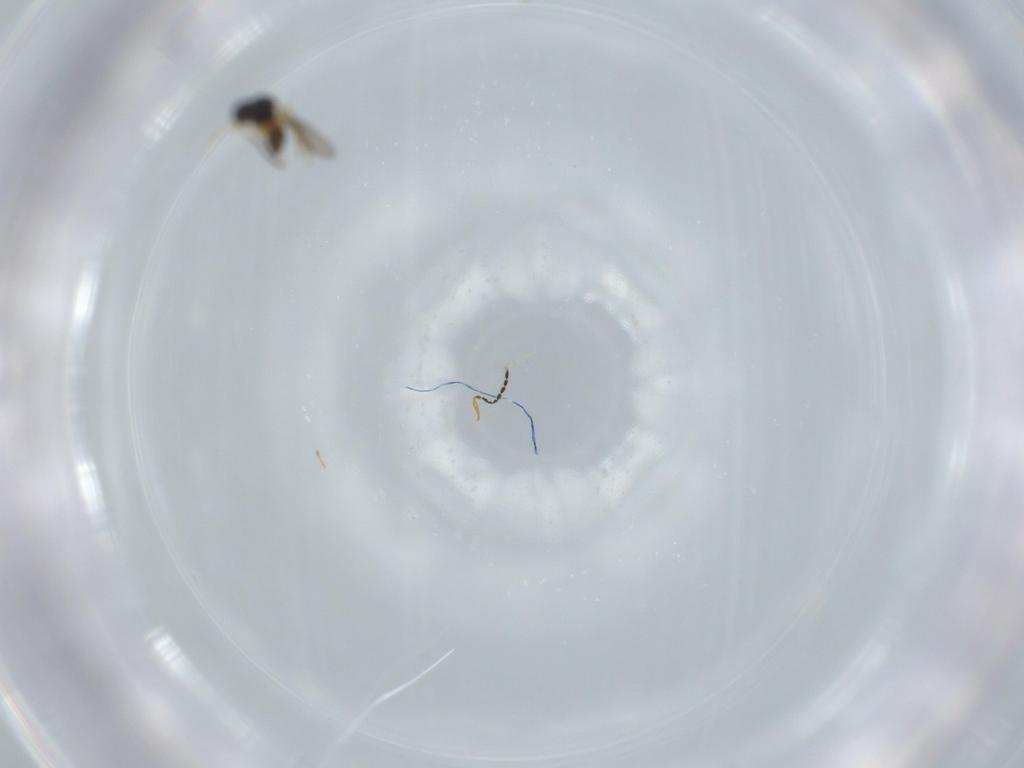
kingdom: Animalia
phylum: Arthropoda
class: Insecta
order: Hymenoptera
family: Platygastridae
